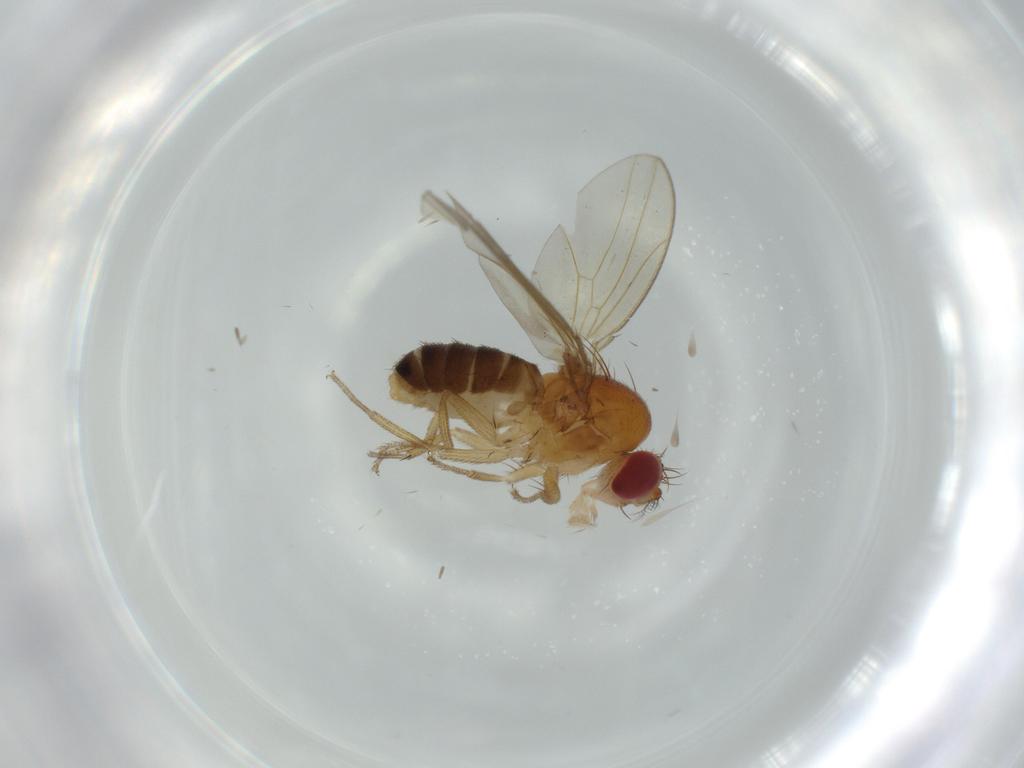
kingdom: Animalia
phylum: Arthropoda
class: Insecta
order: Diptera
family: Drosophilidae
